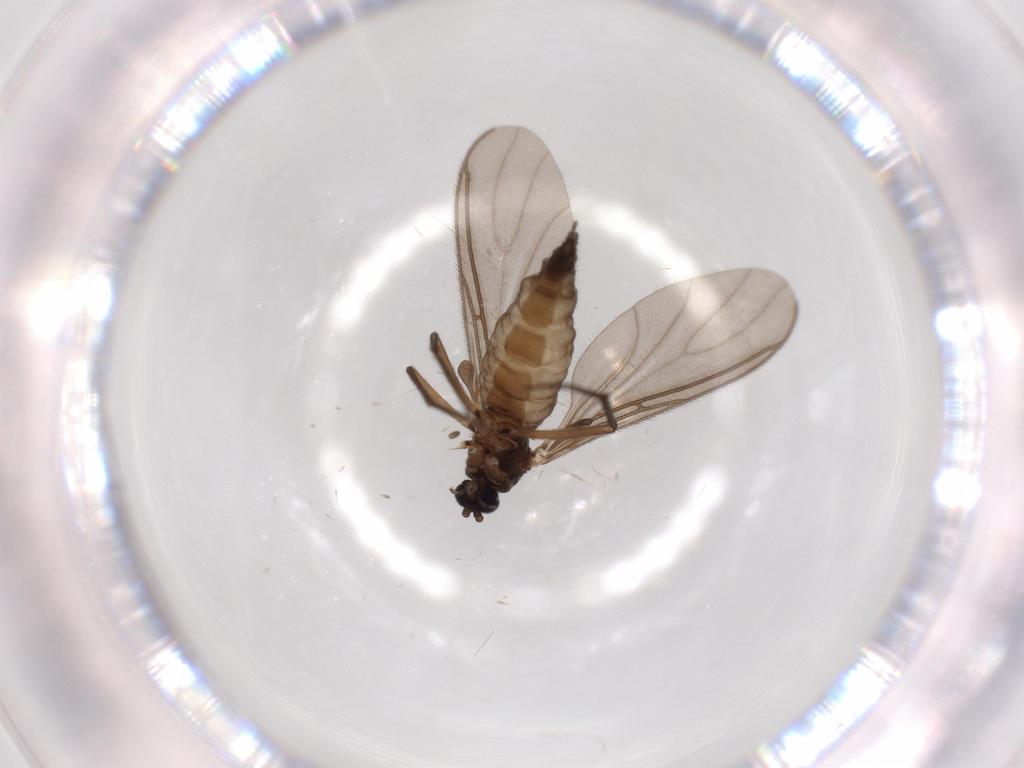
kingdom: Animalia
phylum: Arthropoda
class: Insecta
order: Diptera
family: Sciaridae
